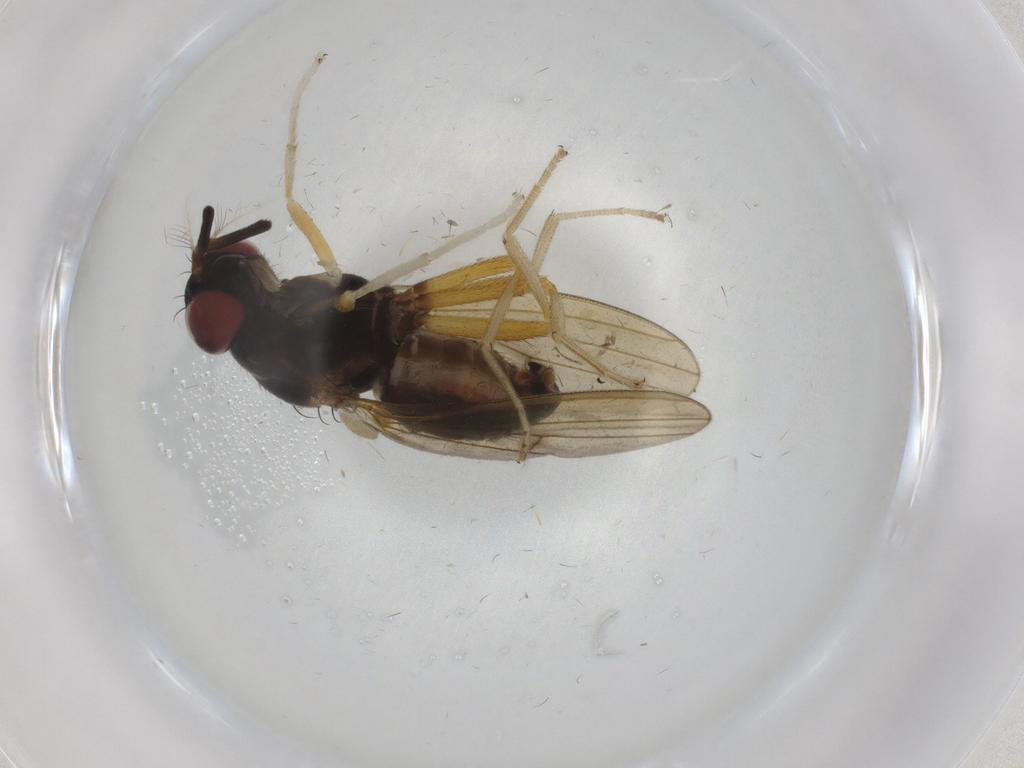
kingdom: Animalia
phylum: Arthropoda
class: Insecta
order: Diptera
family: Lauxaniidae
